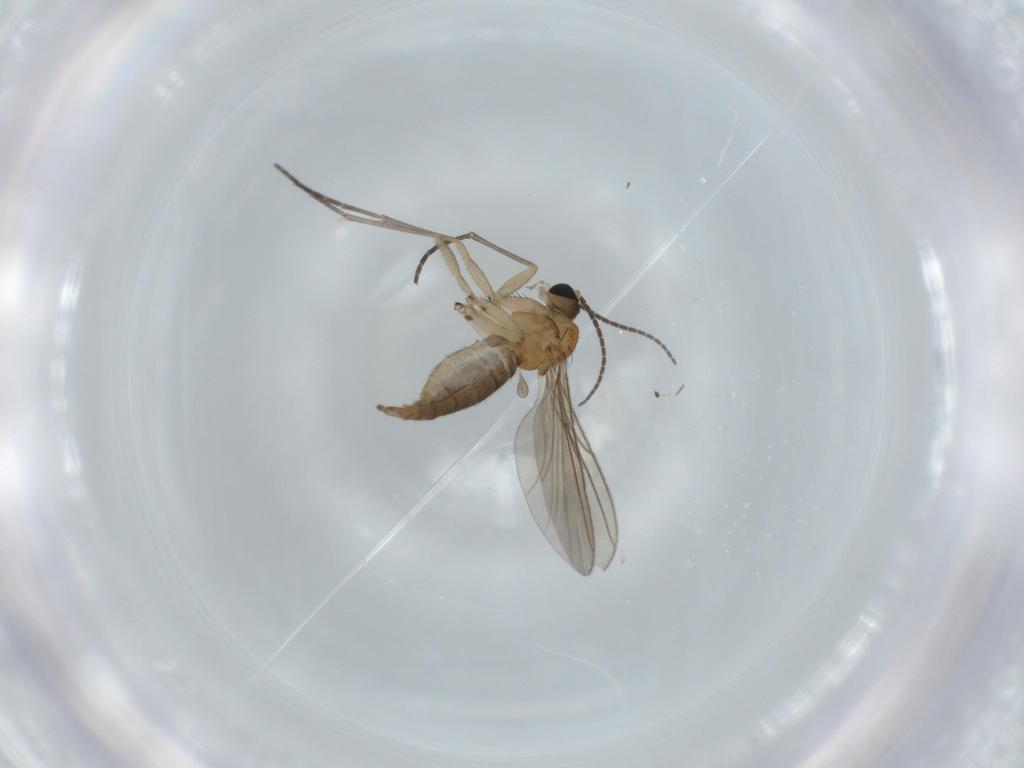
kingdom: Animalia
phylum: Arthropoda
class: Insecta
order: Diptera
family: Sciaridae
